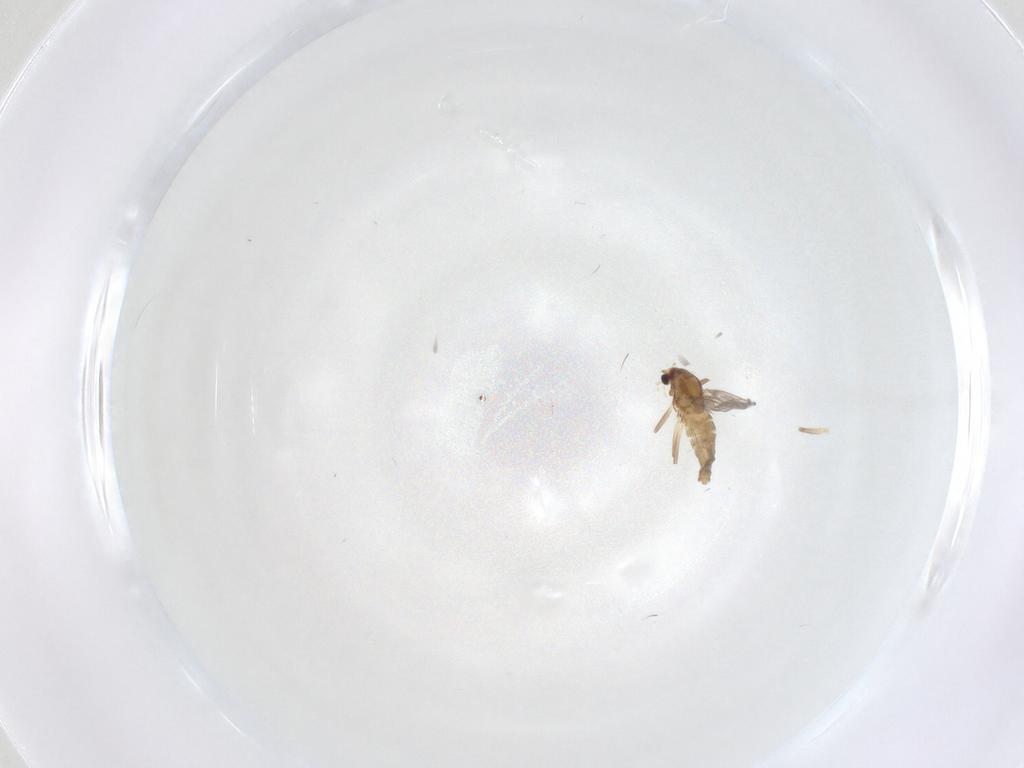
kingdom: Animalia
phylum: Arthropoda
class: Insecta
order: Diptera
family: Chironomidae
